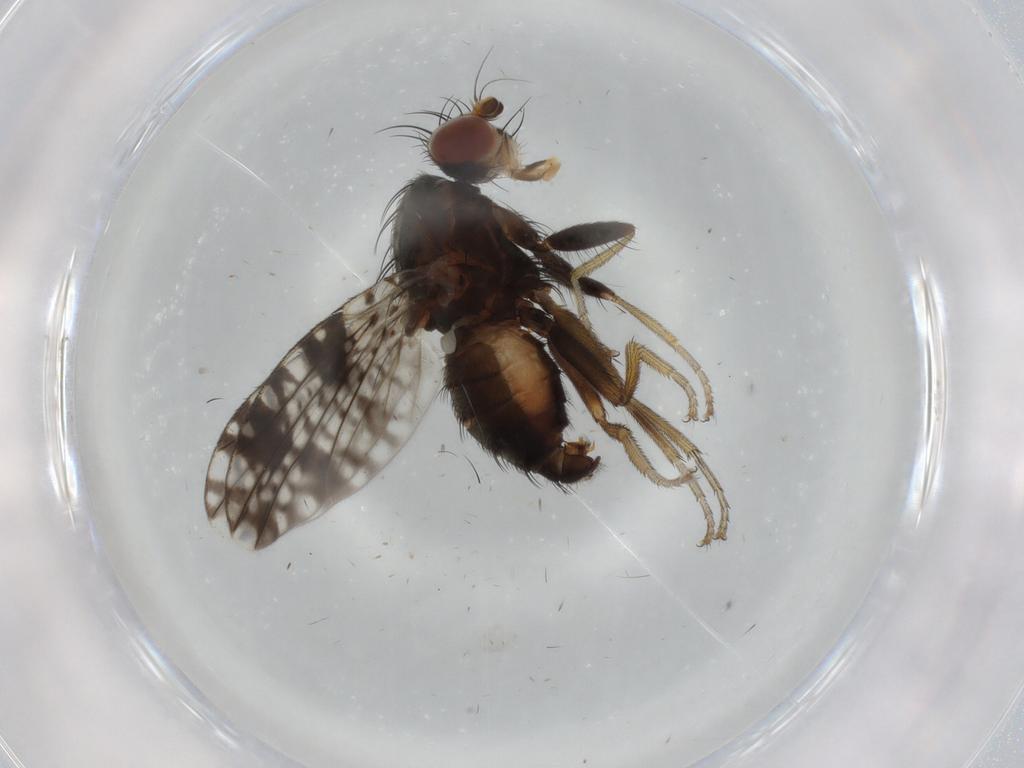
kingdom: Animalia
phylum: Arthropoda
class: Insecta
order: Diptera
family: Tephritidae
